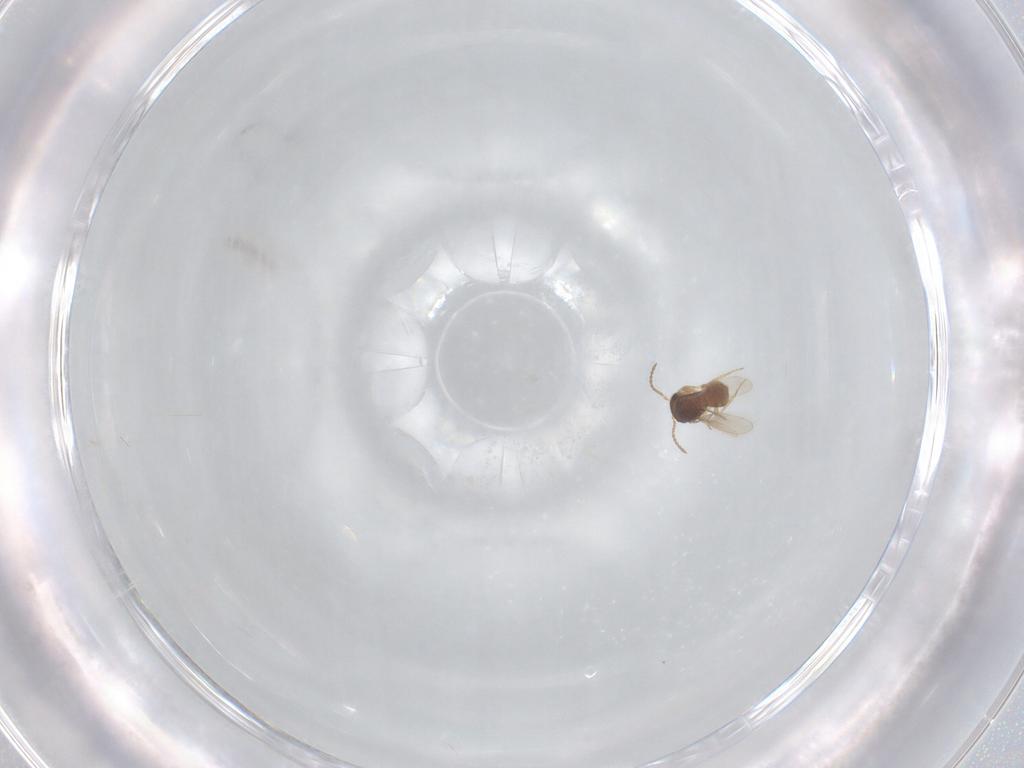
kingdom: Animalia
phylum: Arthropoda
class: Insecta
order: Hymenoptera
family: Scelionidae
